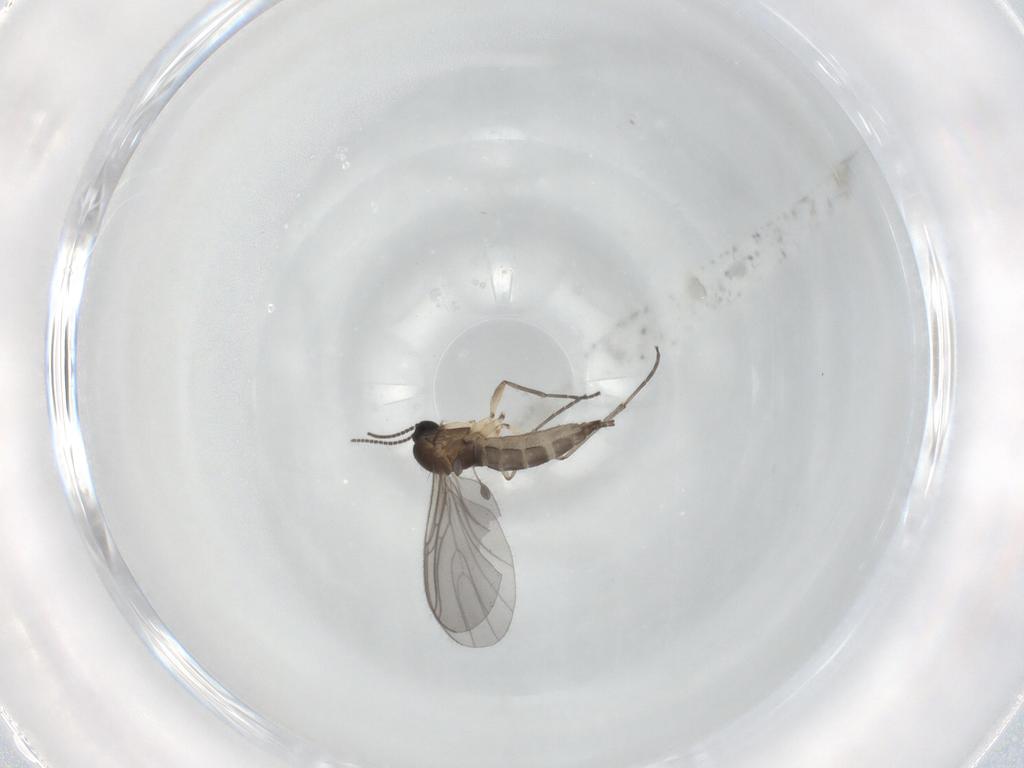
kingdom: Animalia
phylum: Arthropoda
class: Insecta
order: Diptera
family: Sciaridae
